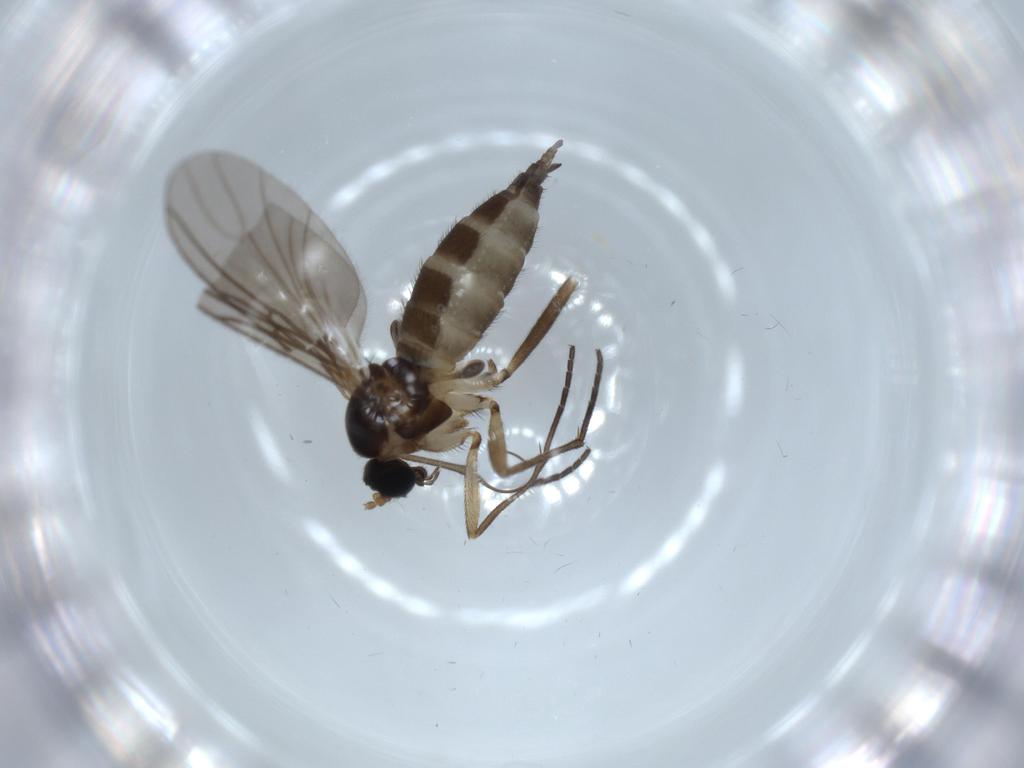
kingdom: Animalia
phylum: Arthropoda
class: Insecta
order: Diptera
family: Sciaridae
